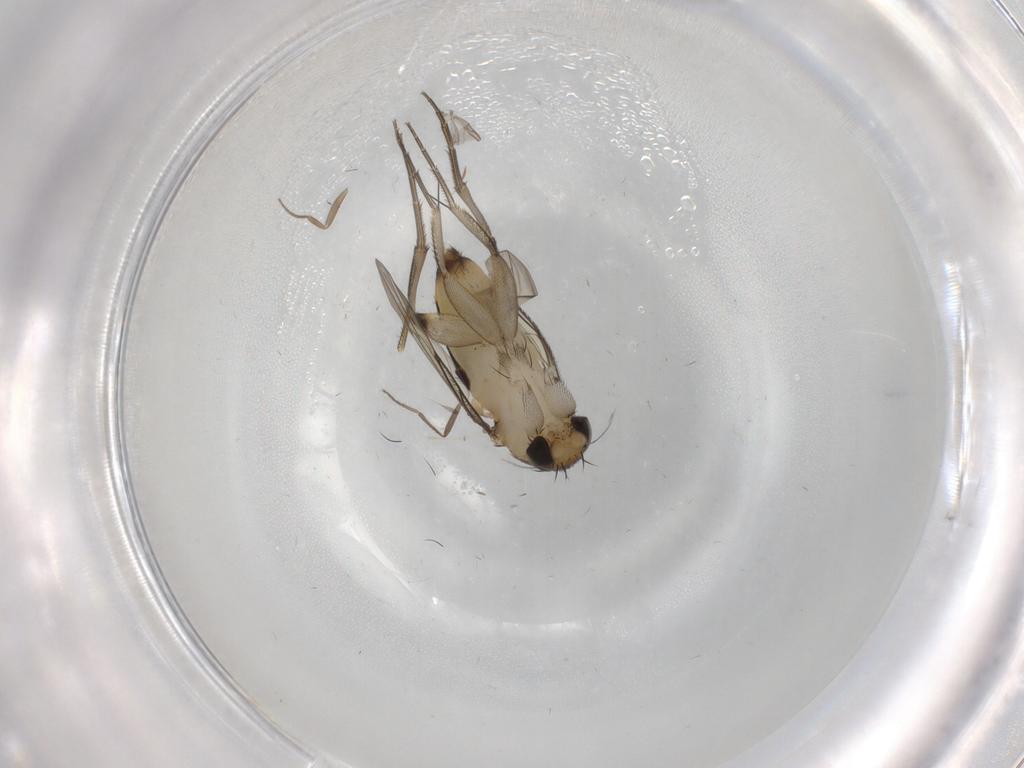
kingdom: Animalia
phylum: Arthropoda
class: Insecta
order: Diptera
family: Phoridae
